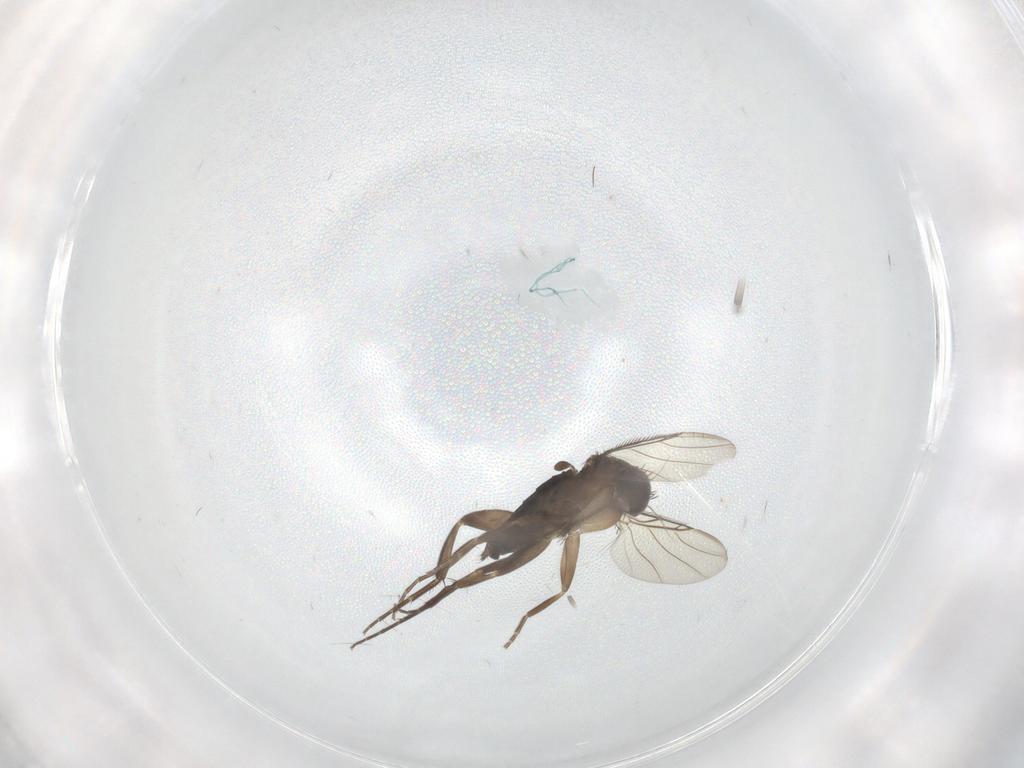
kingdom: Animalia
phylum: Arthropoda
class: Insecta
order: Diptera
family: Phoridae
